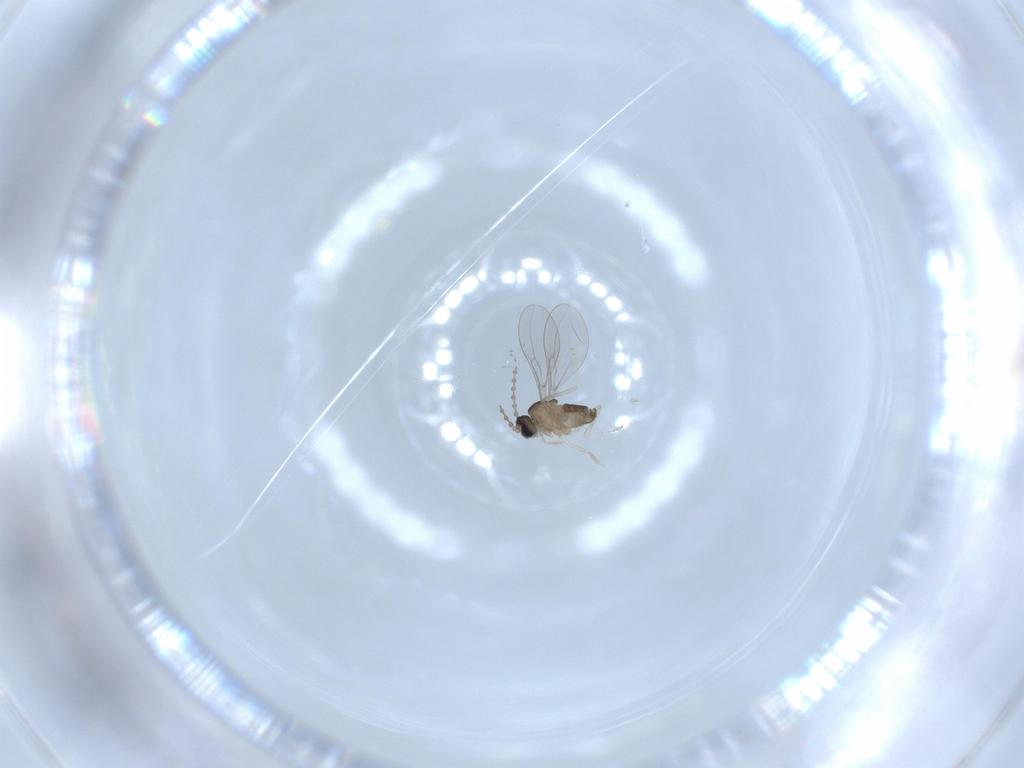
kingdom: Animalia
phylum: Arthropoda
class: Insecta
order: Diptera
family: Cecidomyiidae
